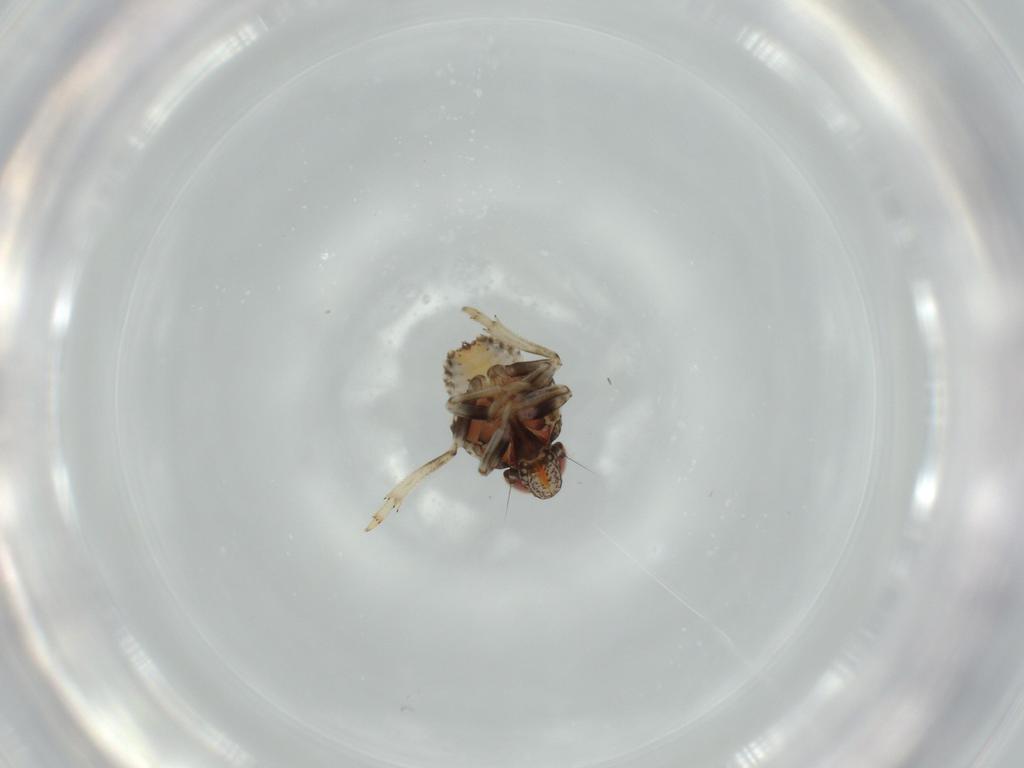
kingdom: Animalia
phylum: Arthropoda
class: Insecta
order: Hemiptera
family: Issidae
